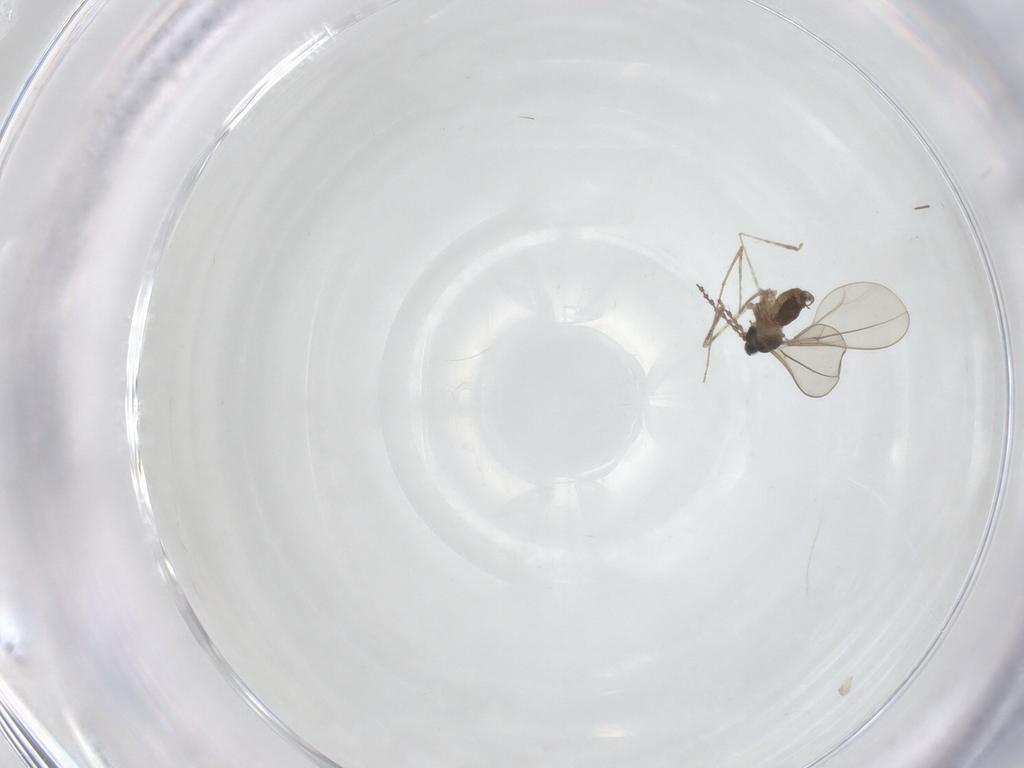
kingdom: Animalia
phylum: Arthropoda
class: Insecta
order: Diptera
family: Cecidomyiidae
